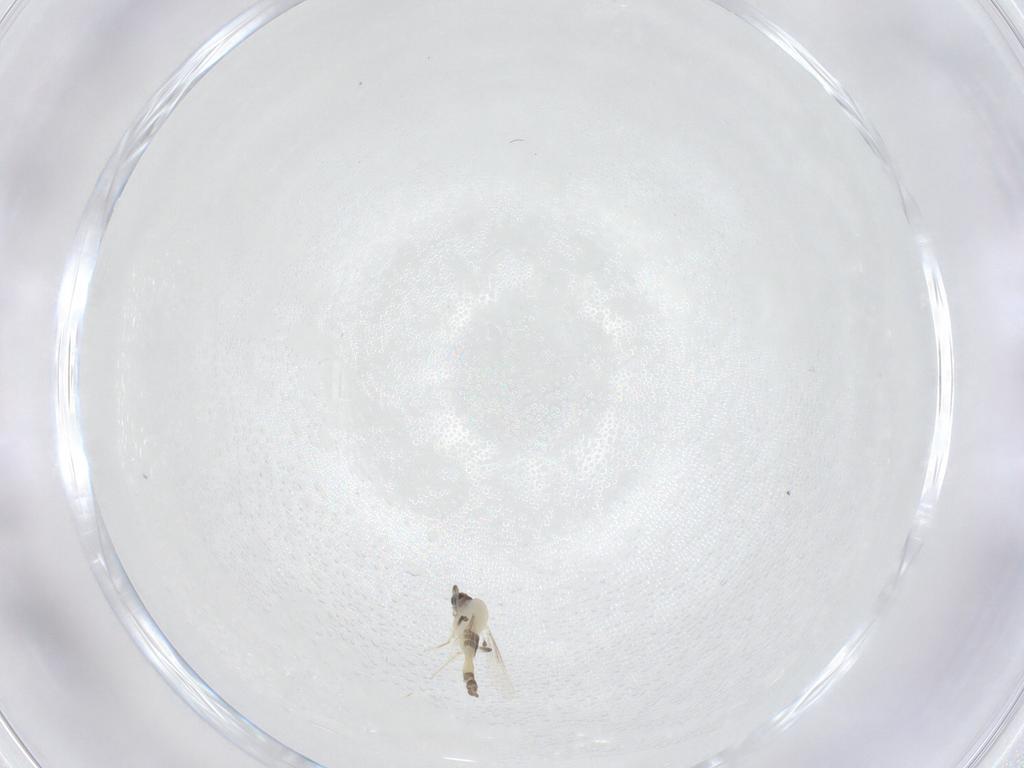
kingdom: Animalia
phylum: Arthropoda
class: Insecta
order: Diptera
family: Chironomidae
